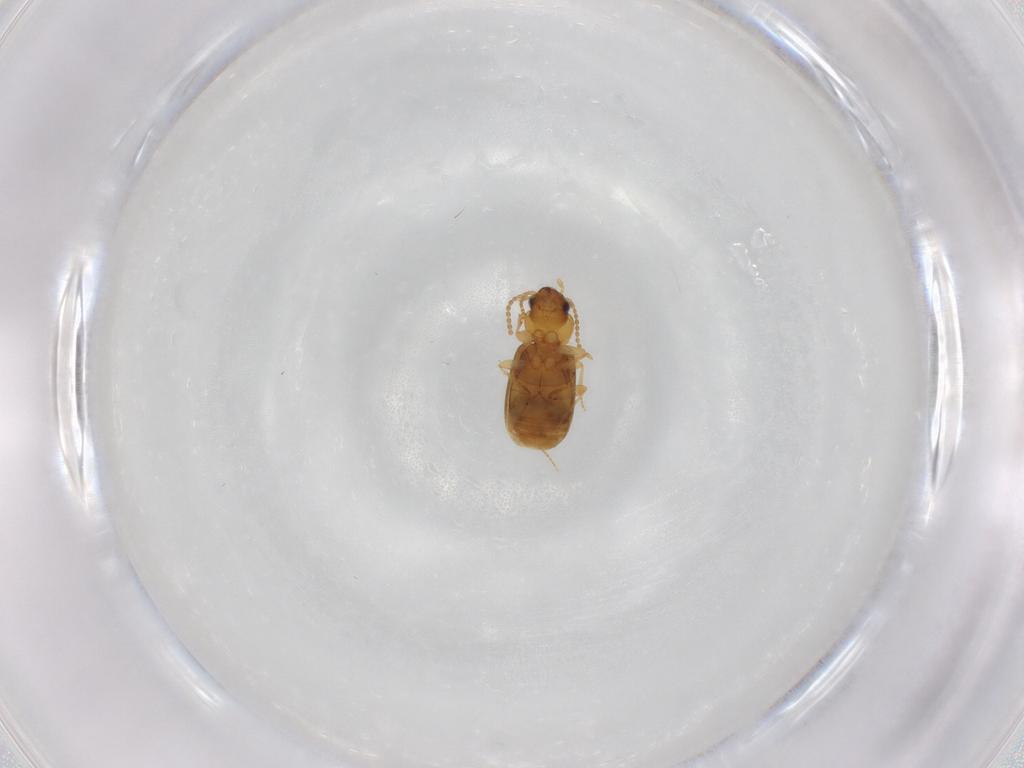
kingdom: Animalia
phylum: Arthropoda
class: Insecta
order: Coleoptera
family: Carabidae
